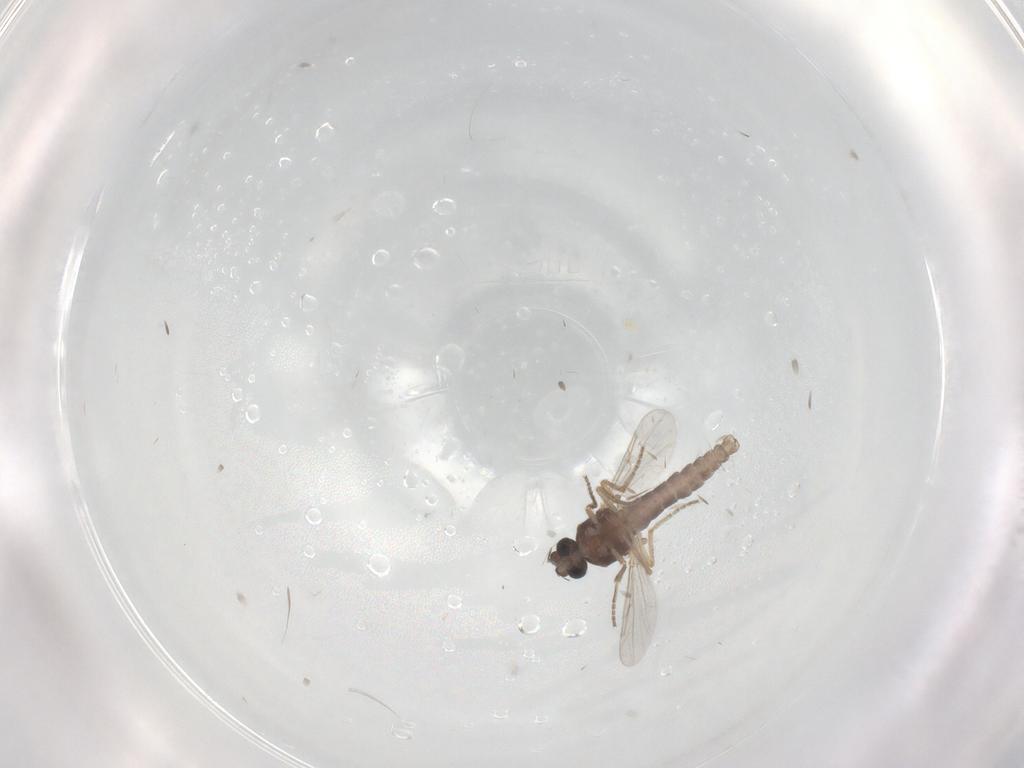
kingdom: Animalia
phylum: Arthropoda
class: Insecta
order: Diptera
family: Ceratopogonidae
